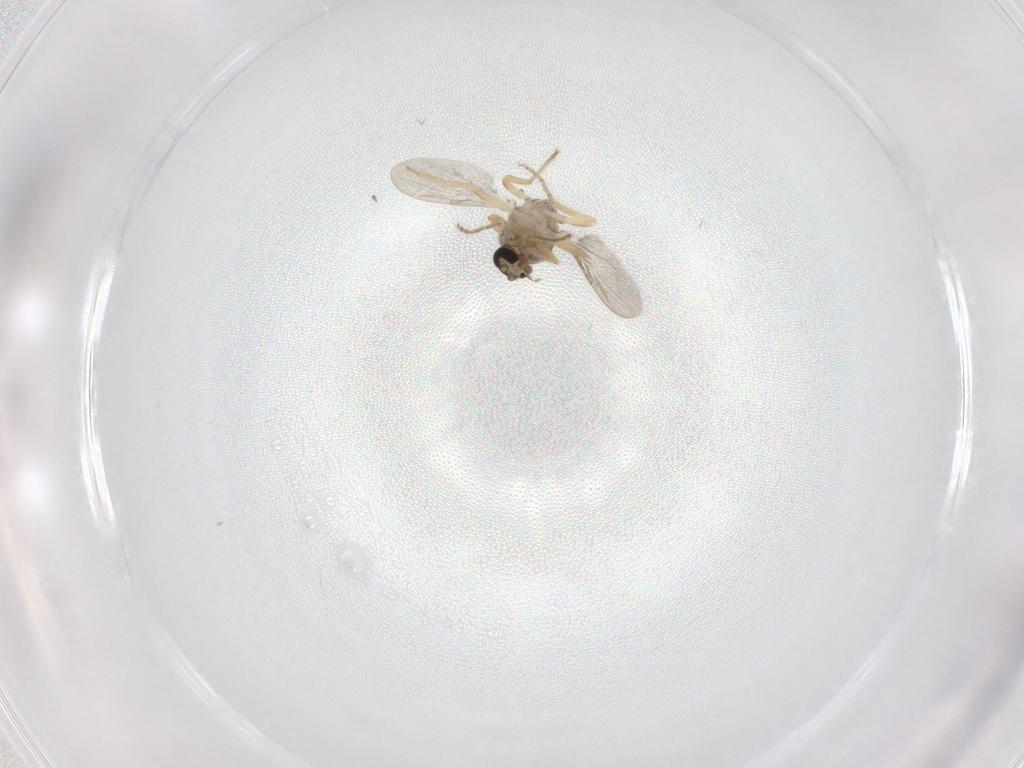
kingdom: Animalia
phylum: Arthropoda
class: Insecta
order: Diptera
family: Ceratopogonidae
